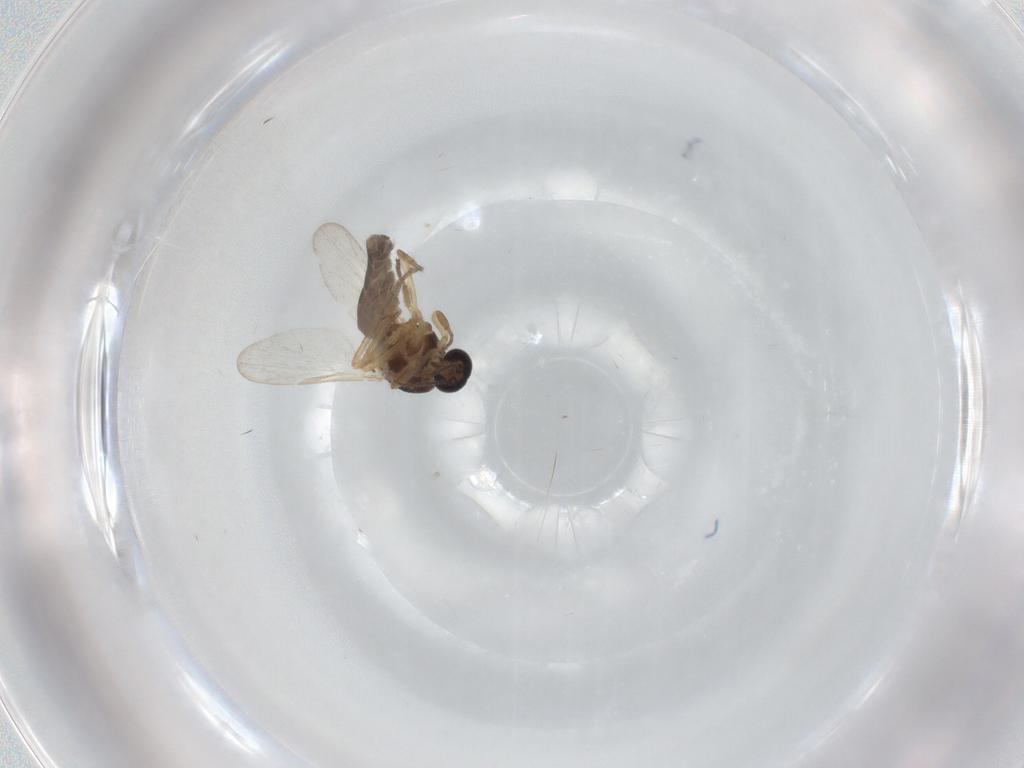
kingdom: Animalia
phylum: Arthropoda
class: Insecta
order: Diptera
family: Ceratopogonidae
